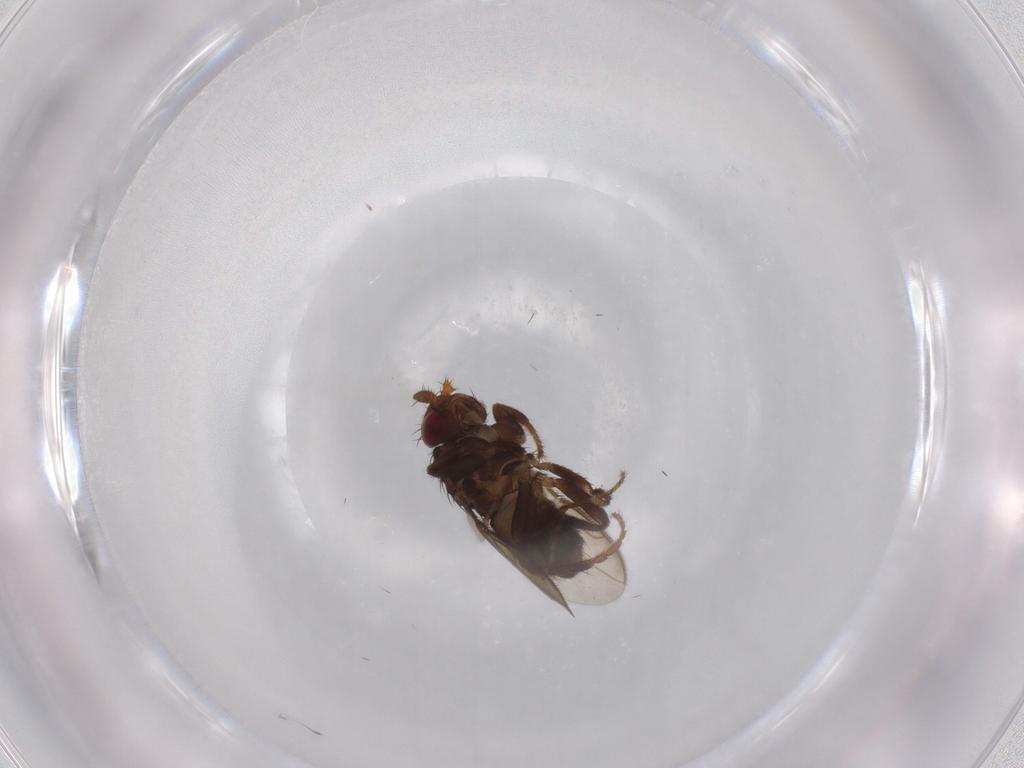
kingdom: Animalia
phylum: Arthropoda
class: Insecta
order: Diptera
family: Sphaeroceridae
